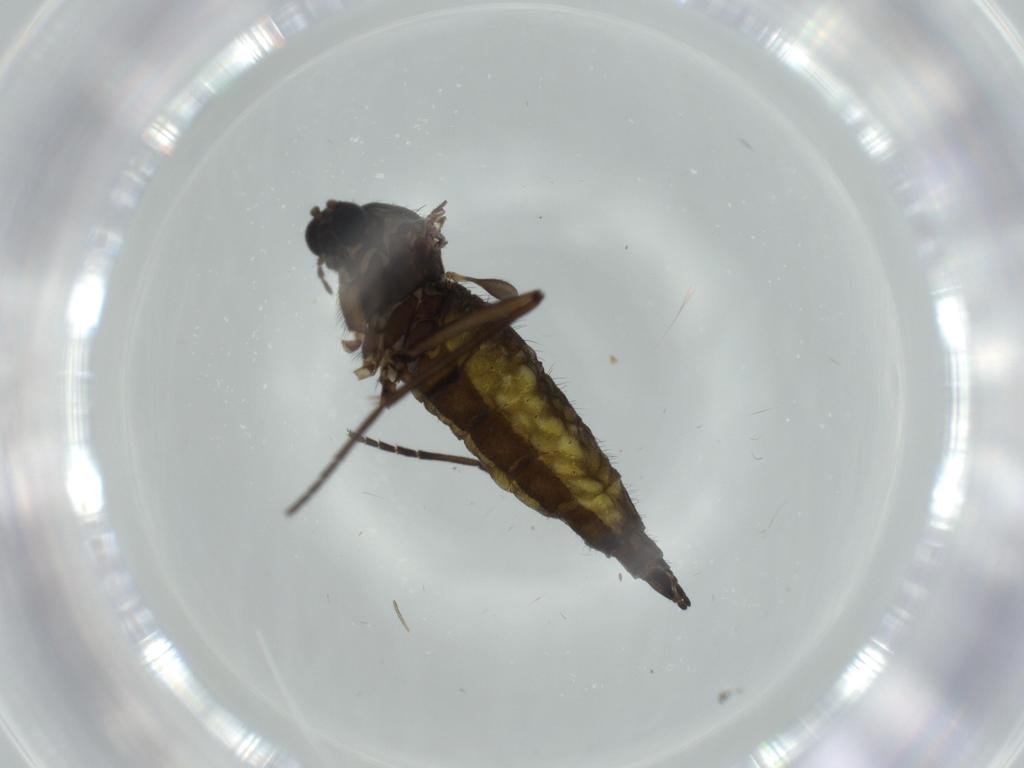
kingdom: Animalia
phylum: Arthropoda
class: Insecta
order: Diptera
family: Sciaridae
